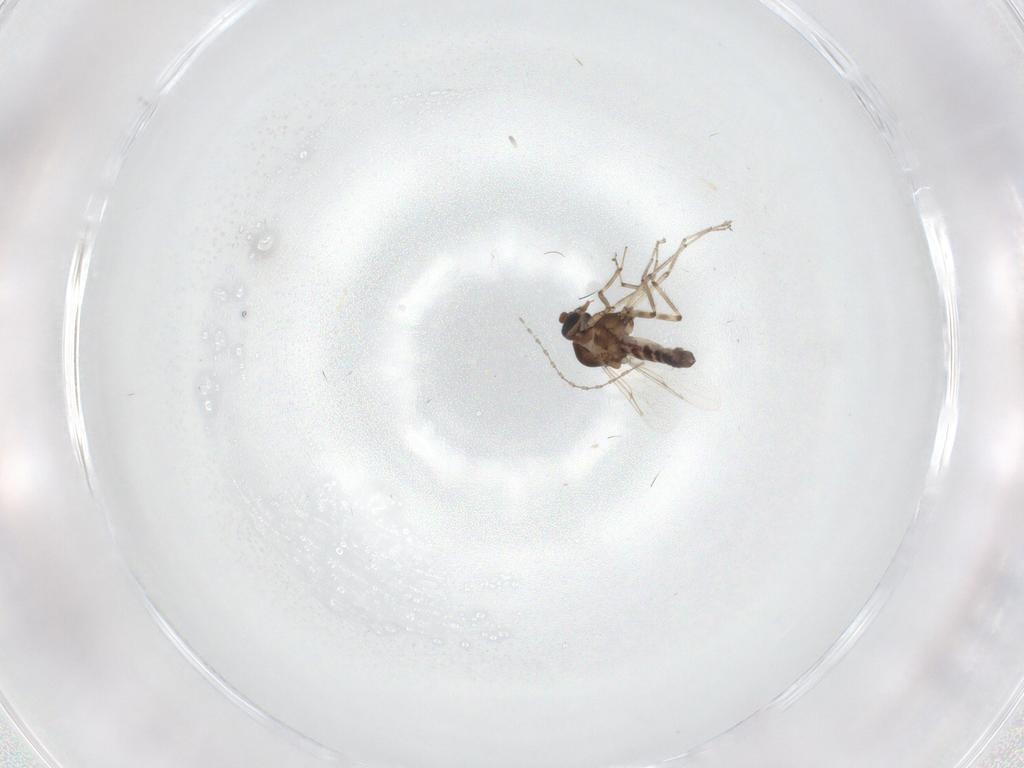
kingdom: Animalia
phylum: Arthropoda
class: Insecta
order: Diptera
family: Ceratopogonidae
